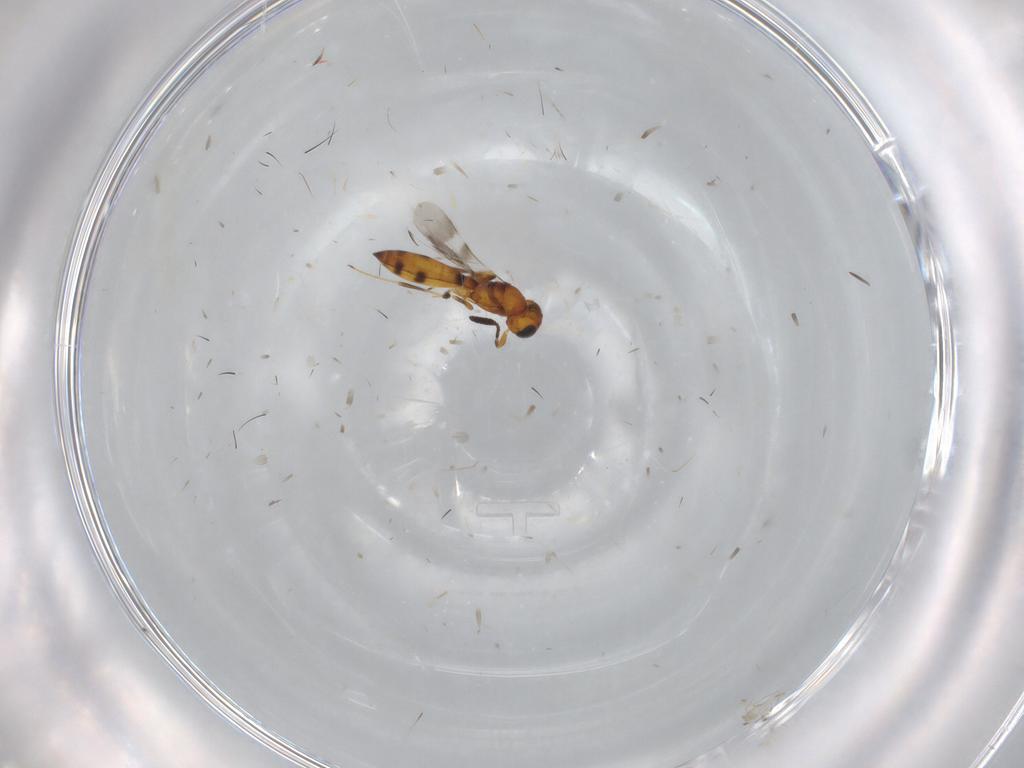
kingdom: Animalia
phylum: Arthropoda
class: Insecta
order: Hymenoptera
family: Scelionidae
